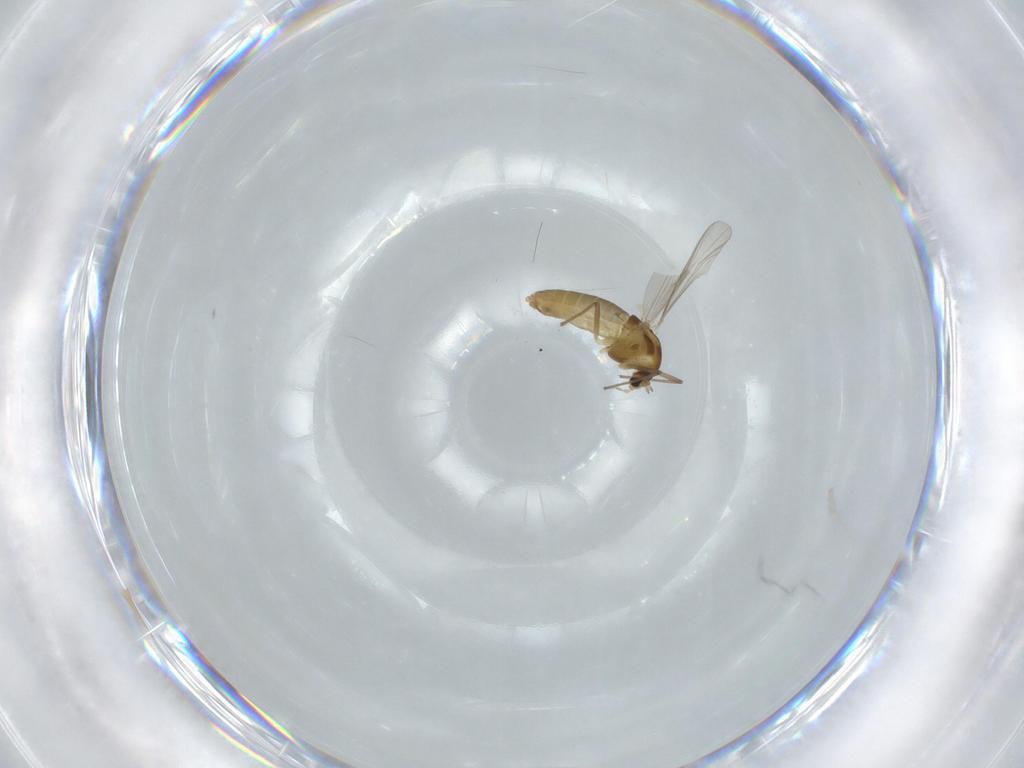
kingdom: Animalia
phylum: Arthropoda
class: Insecta
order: Diptera
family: Chironomidae
